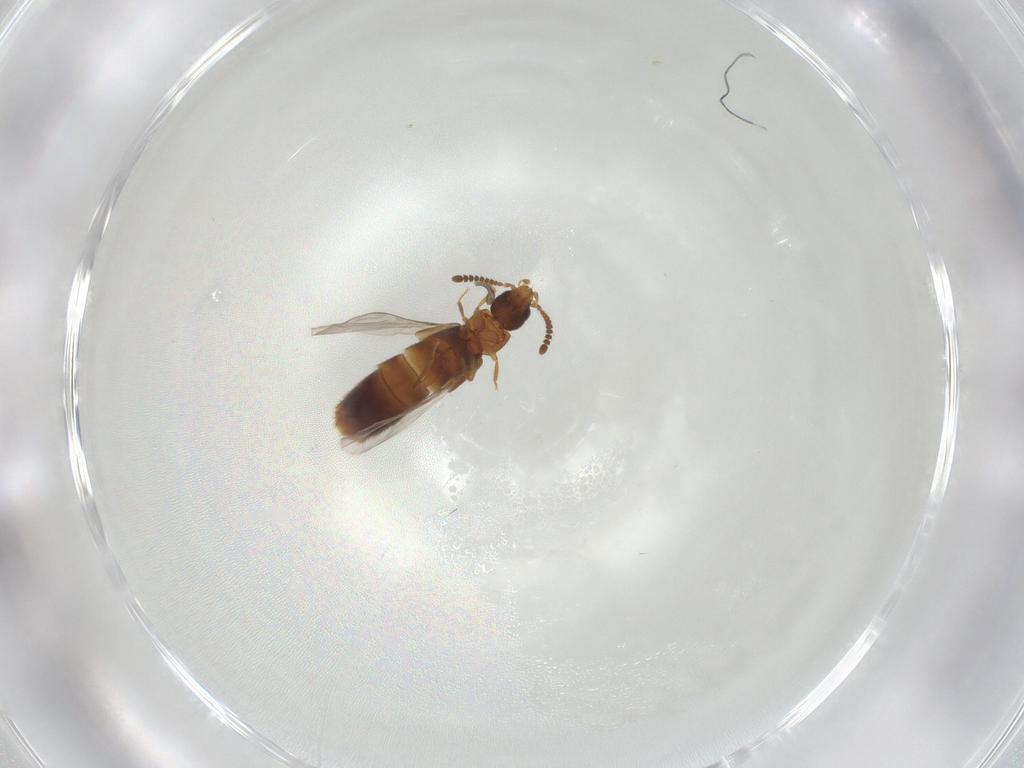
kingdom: Animalia
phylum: Arthropoda
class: Insecta
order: Coleoptera
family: Staphylinidae
